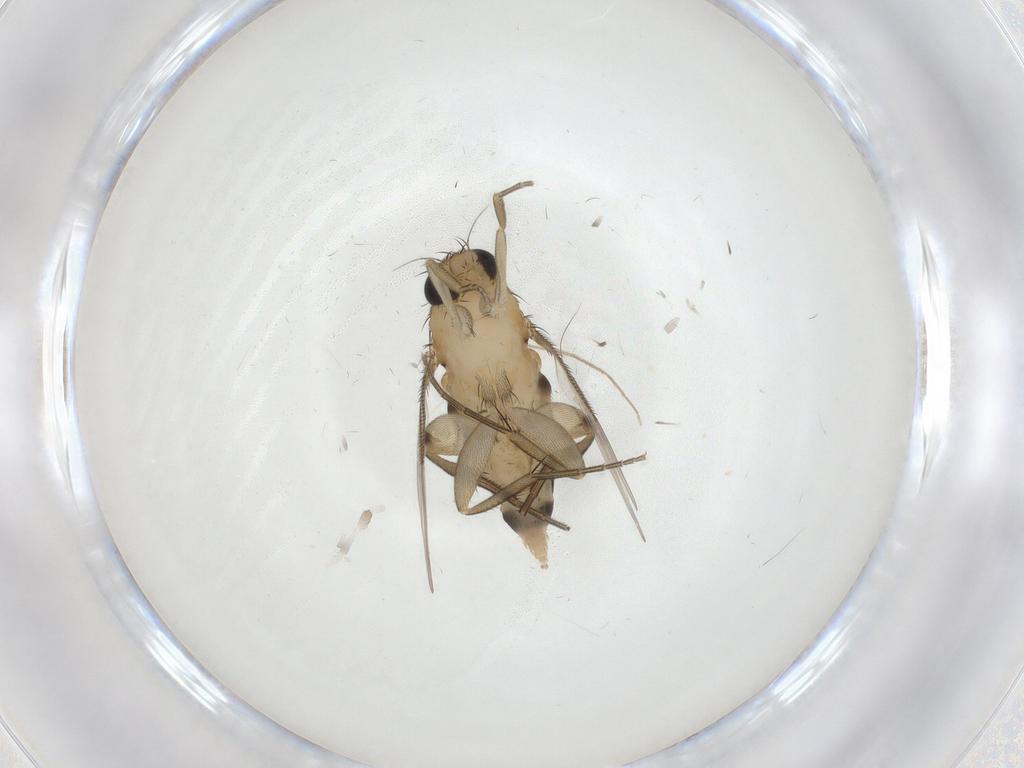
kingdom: Animalia
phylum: Arthropoda
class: Insecta
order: Diptera
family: Chironomidae
